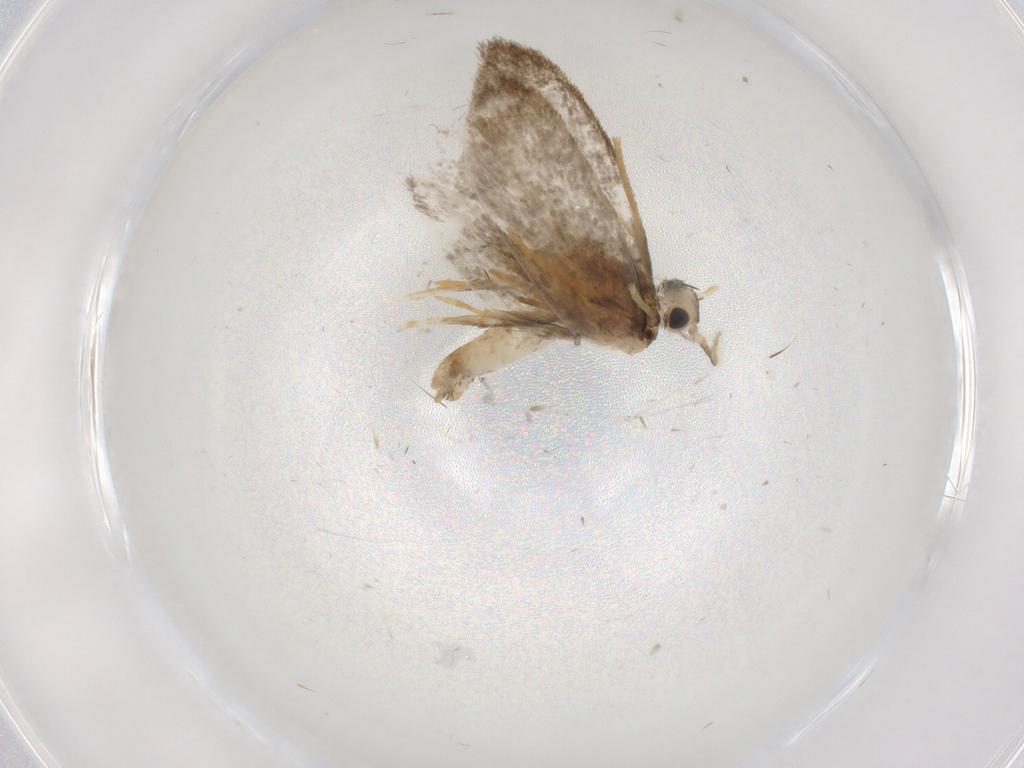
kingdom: Animalia
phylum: Arthropoda
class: Insecta
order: Lepidoptera
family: Psychidae
